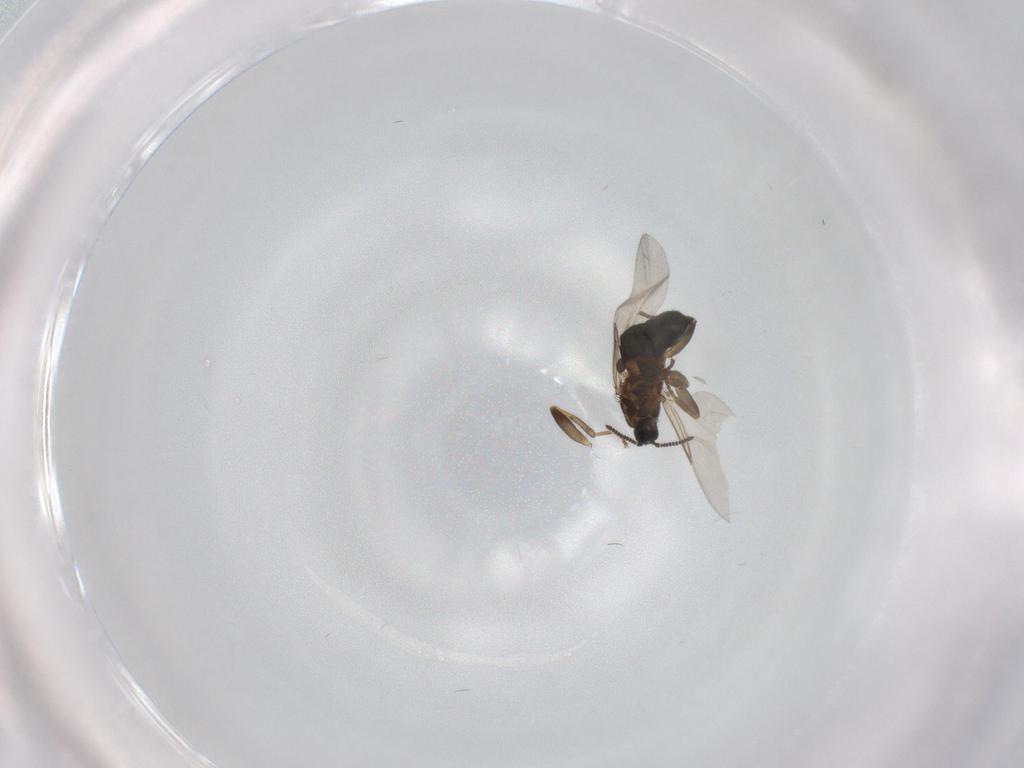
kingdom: Animalia
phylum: Arthropoda
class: Insecta
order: Diptera
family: Scatopsidae
